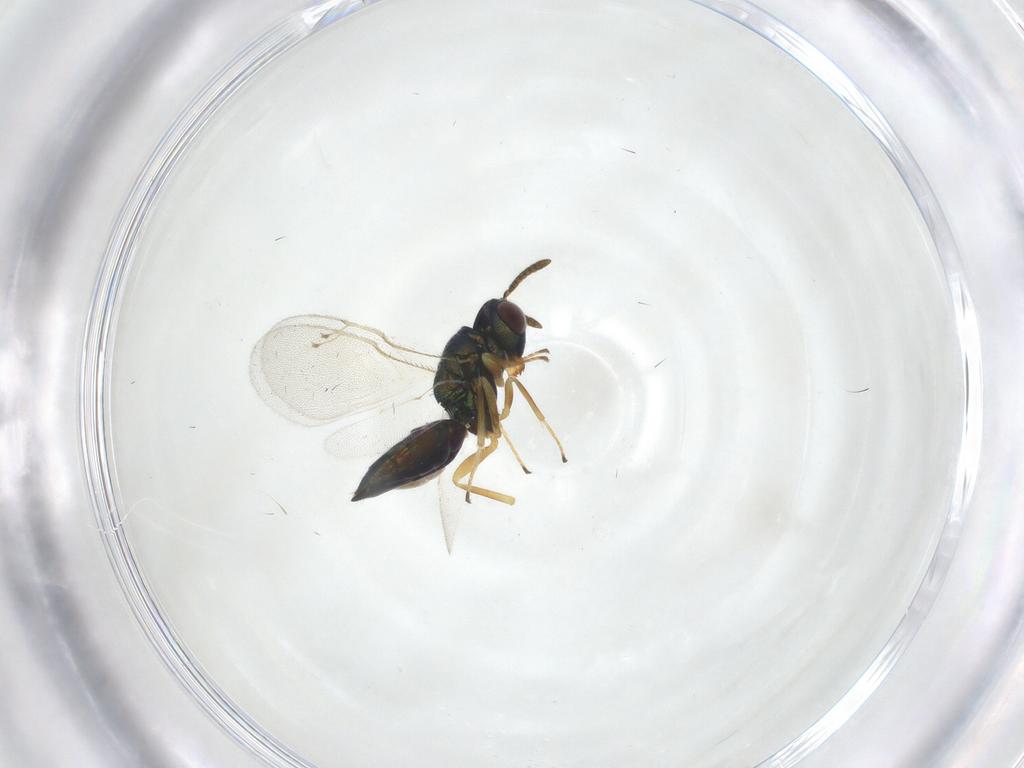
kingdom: Animalia
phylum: Arthropoda
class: Insecta
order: Hymenoptera
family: Pteromalidae
